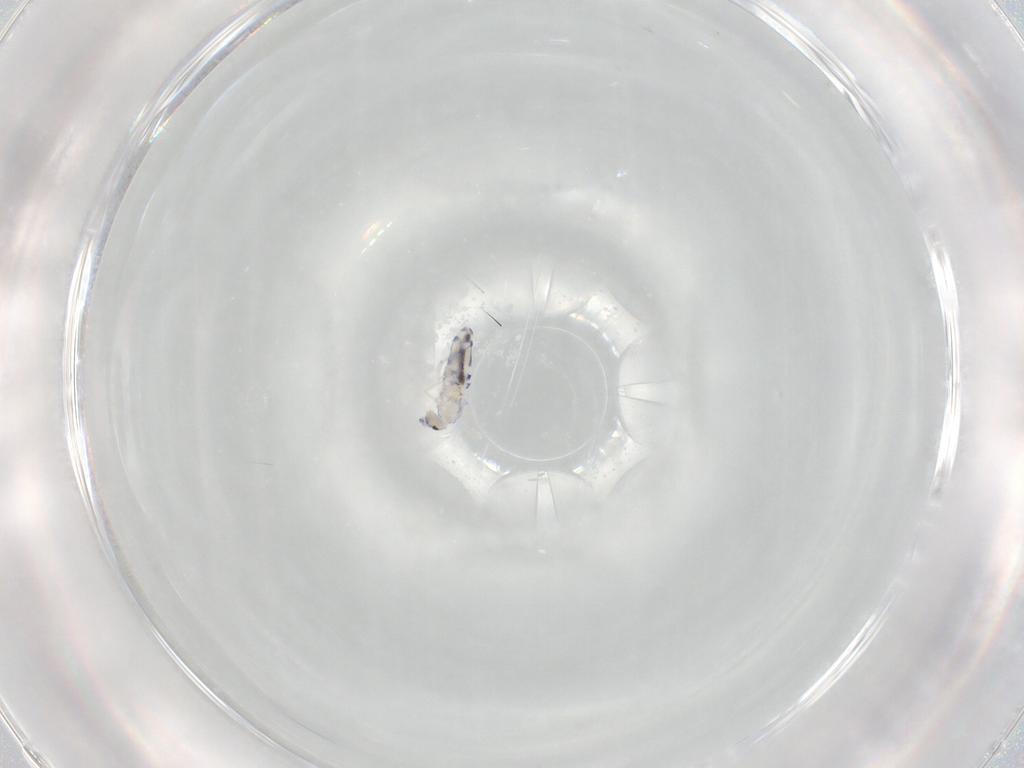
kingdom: Animalia
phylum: Arthropoda
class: Collembola
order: Entomobryomorpha
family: Entomobryidae
